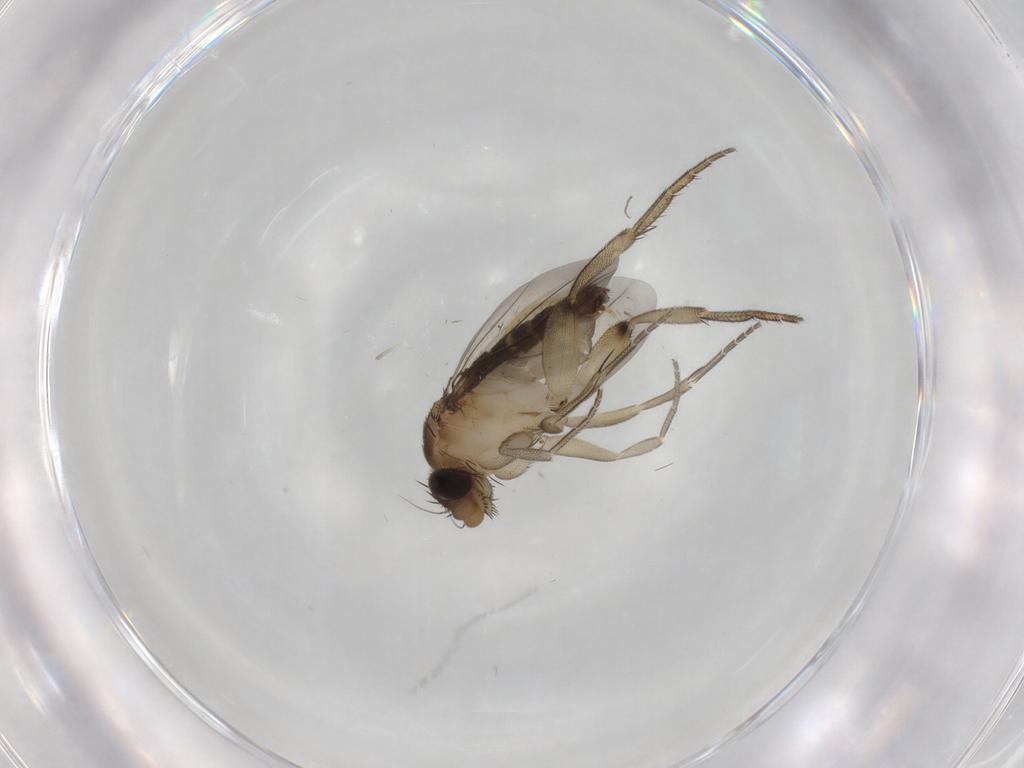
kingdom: Animalia
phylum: Arthropoda
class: Insecta
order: Diptera
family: Phoridae
